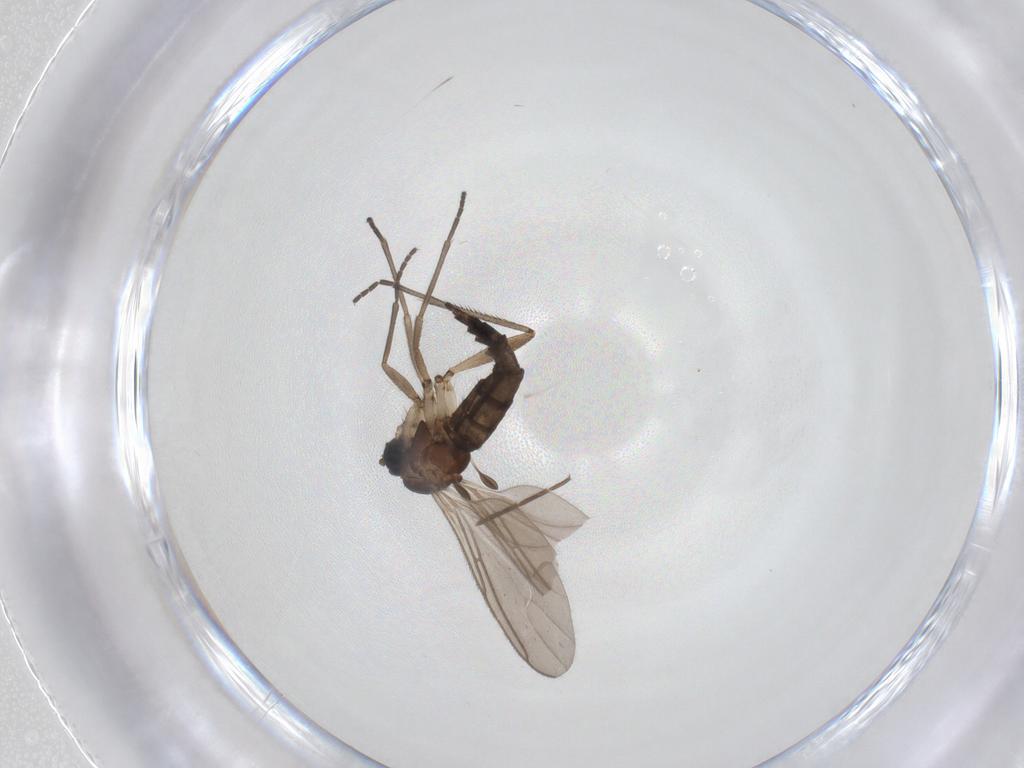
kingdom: Animalia
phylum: Arthropoda
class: Insecta
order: Diptera
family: Sciaridae
